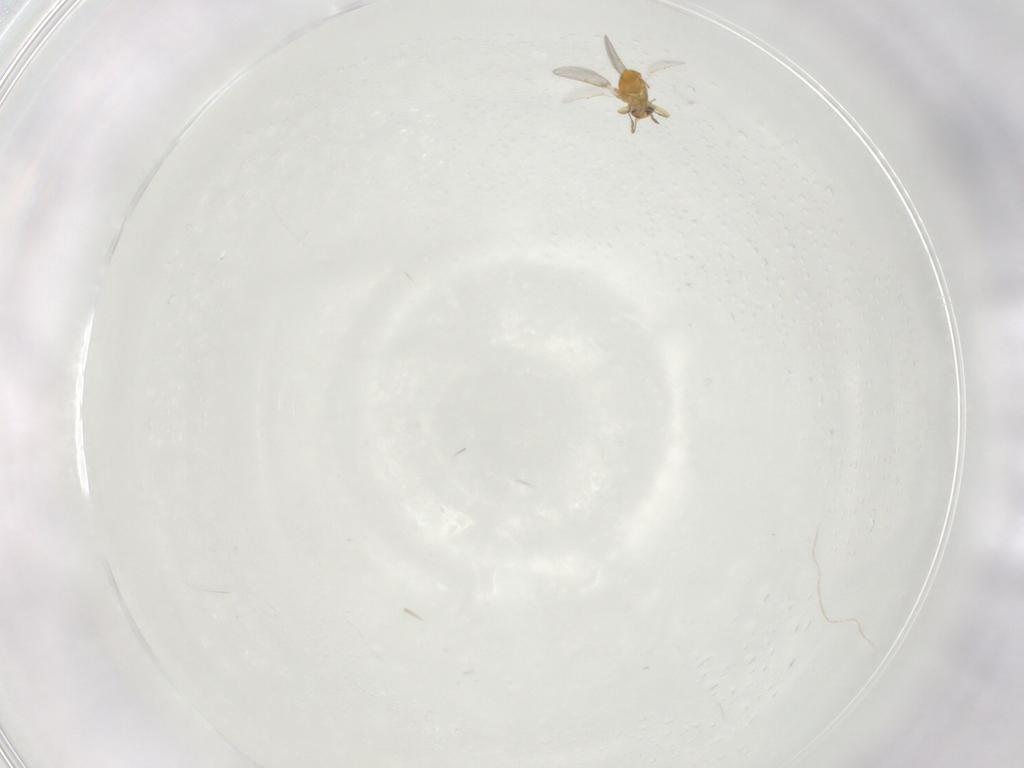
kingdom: Animalia
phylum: Arthropoda
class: Insecta
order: Hymenoptera
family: Aphelinidae
